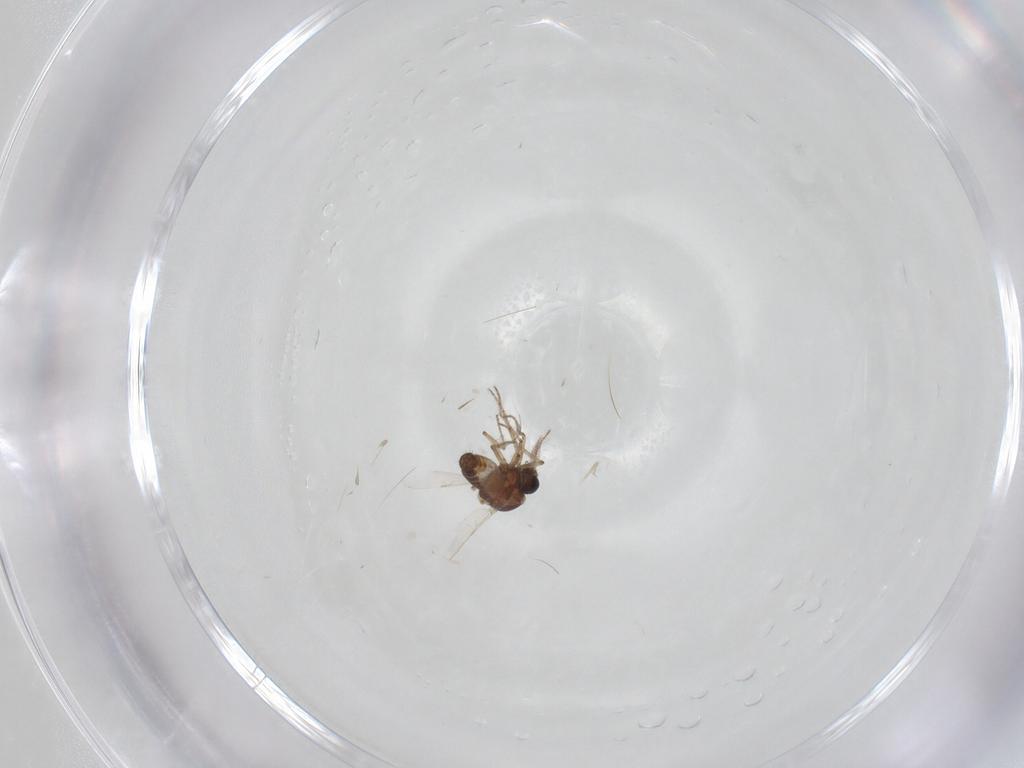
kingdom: Animalia
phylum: Arthropoda
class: Insecta
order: Diptera
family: Ceratopogonidae
